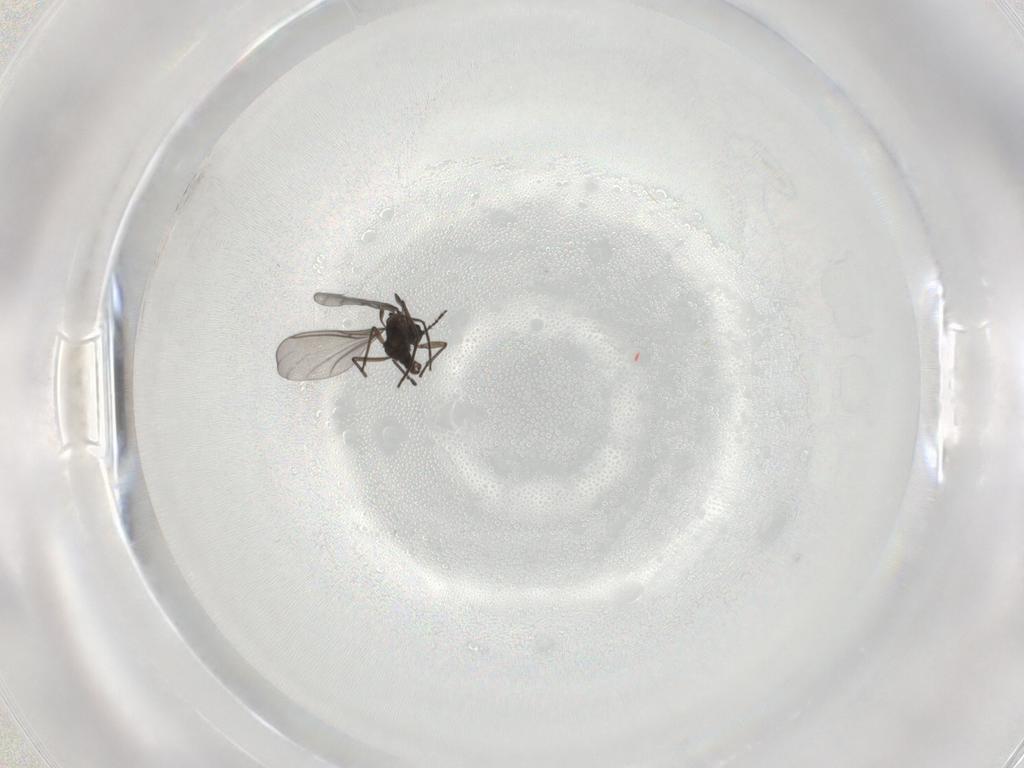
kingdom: Animalia
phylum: Arthropoda
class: Insecta
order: Diptera
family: Sciaridae
